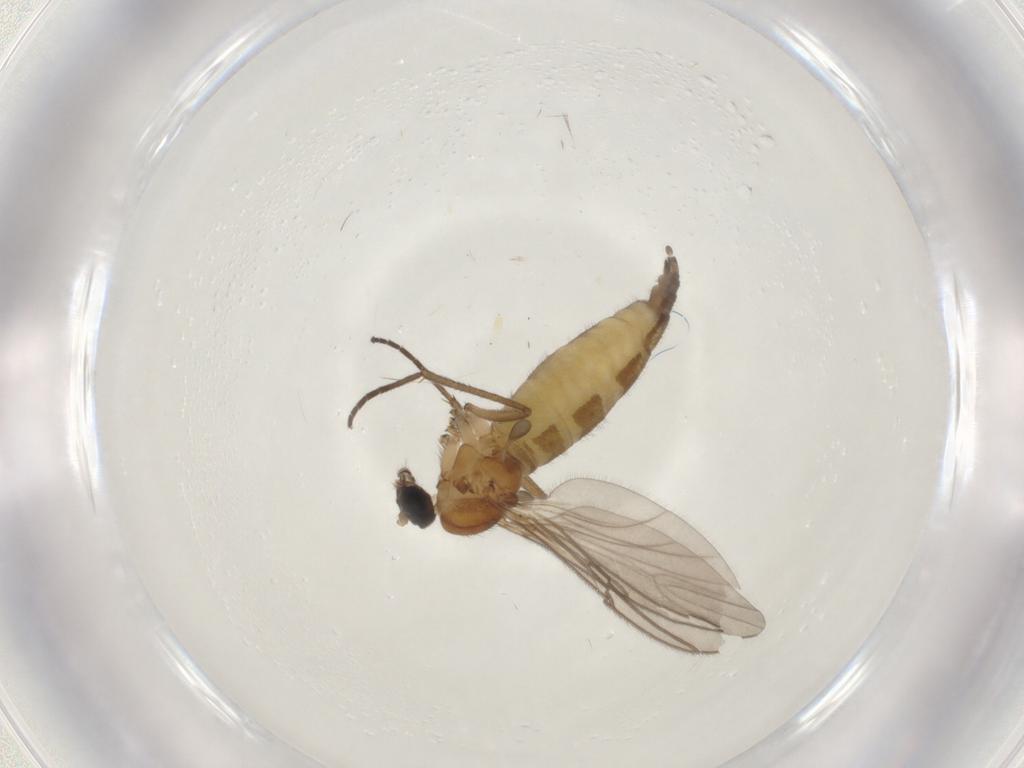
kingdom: Animalia
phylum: Arthropoda
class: Insecta
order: Diptera
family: Sciaridae
